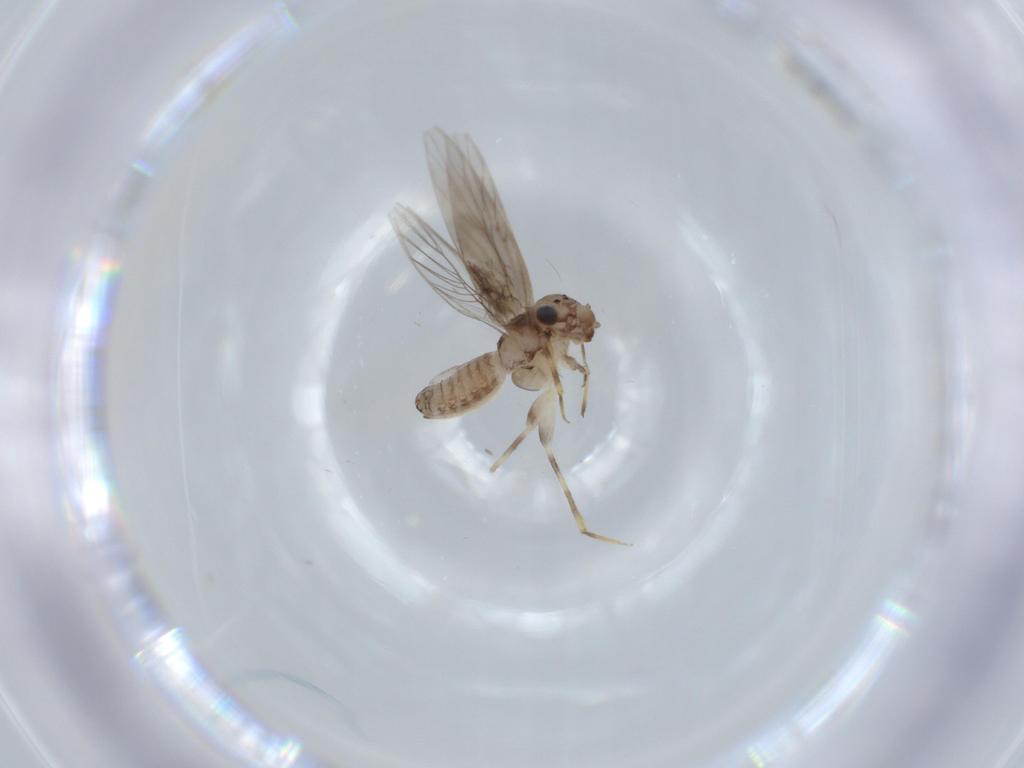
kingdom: Animalia
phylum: Arthropoda
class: Insecta
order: Psocodea
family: Lepidopsocidae
